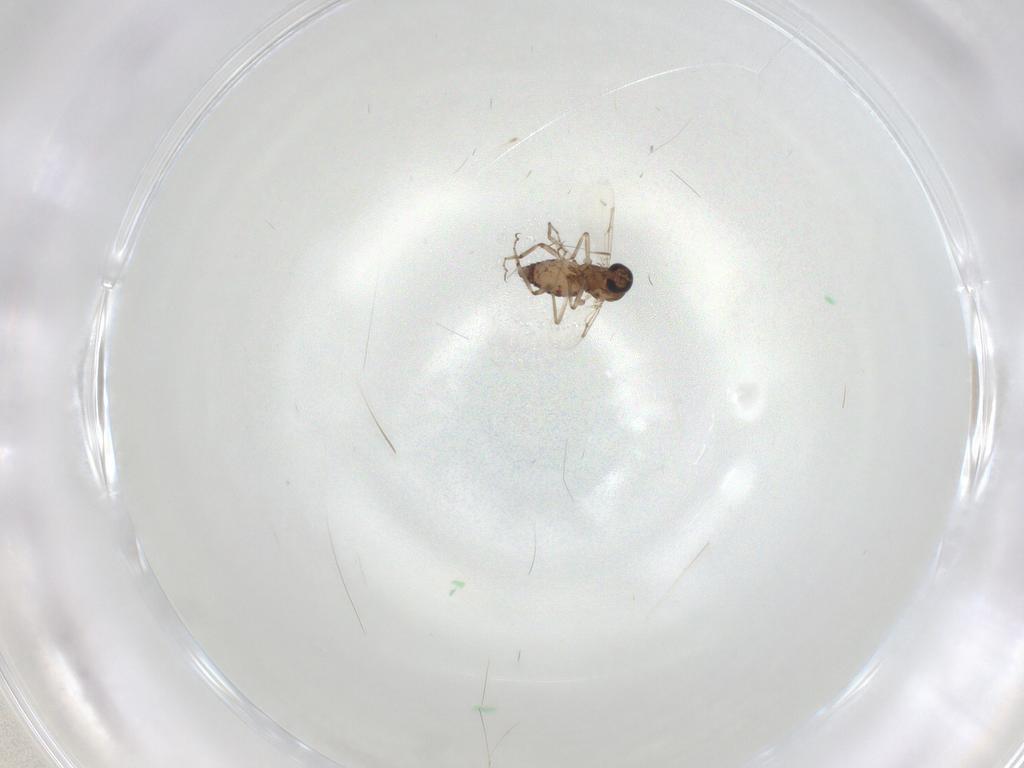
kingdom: Animalia
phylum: Arthropoda
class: Insecta
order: Diptera
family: Ceratopogonidae
